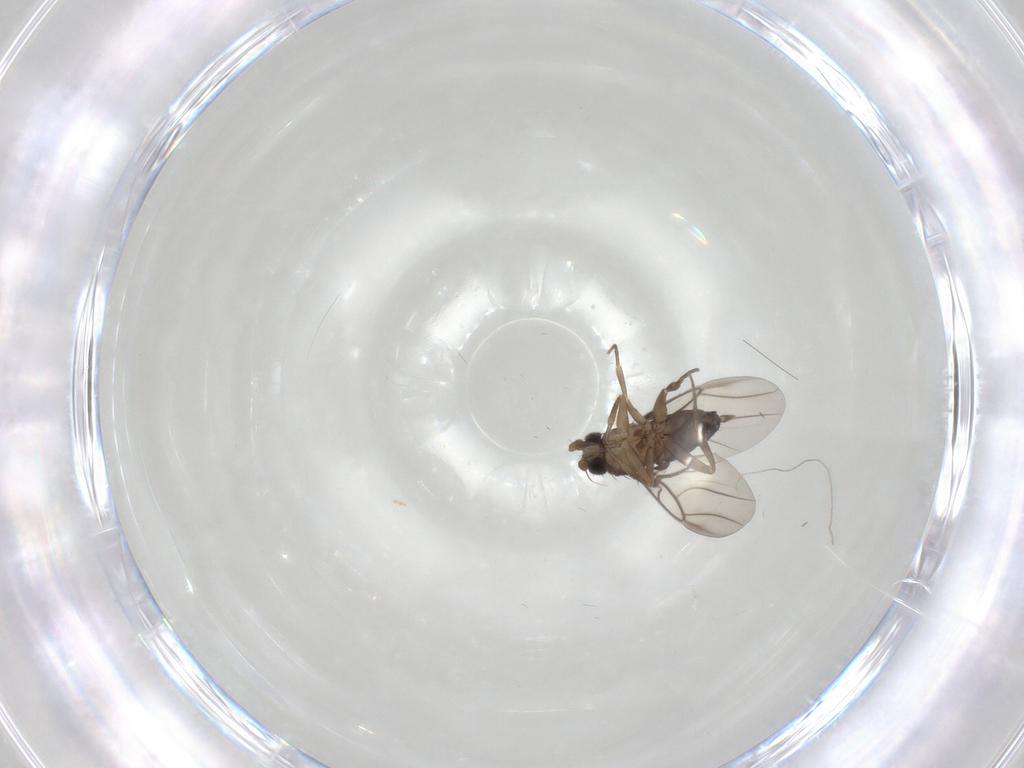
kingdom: Animalia
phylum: Arthropoda
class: Insecta
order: Diptera
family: Phoridae
